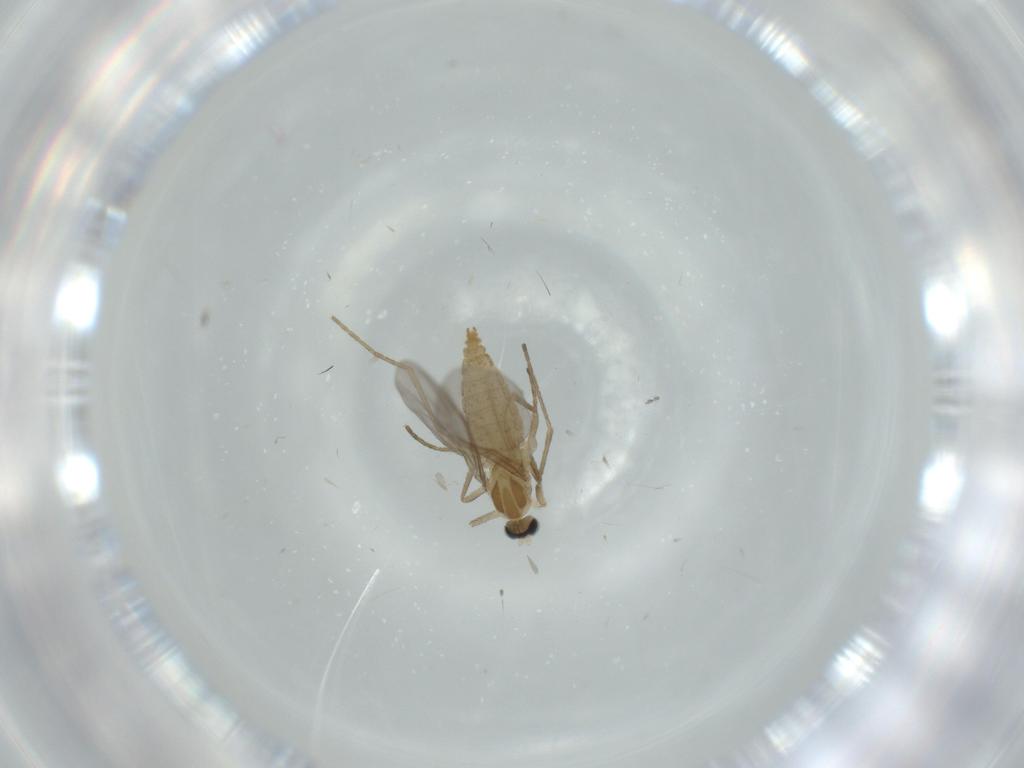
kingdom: Animalia
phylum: Arthropoda
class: Insecta
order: Diptera
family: Cecidomyiidae
